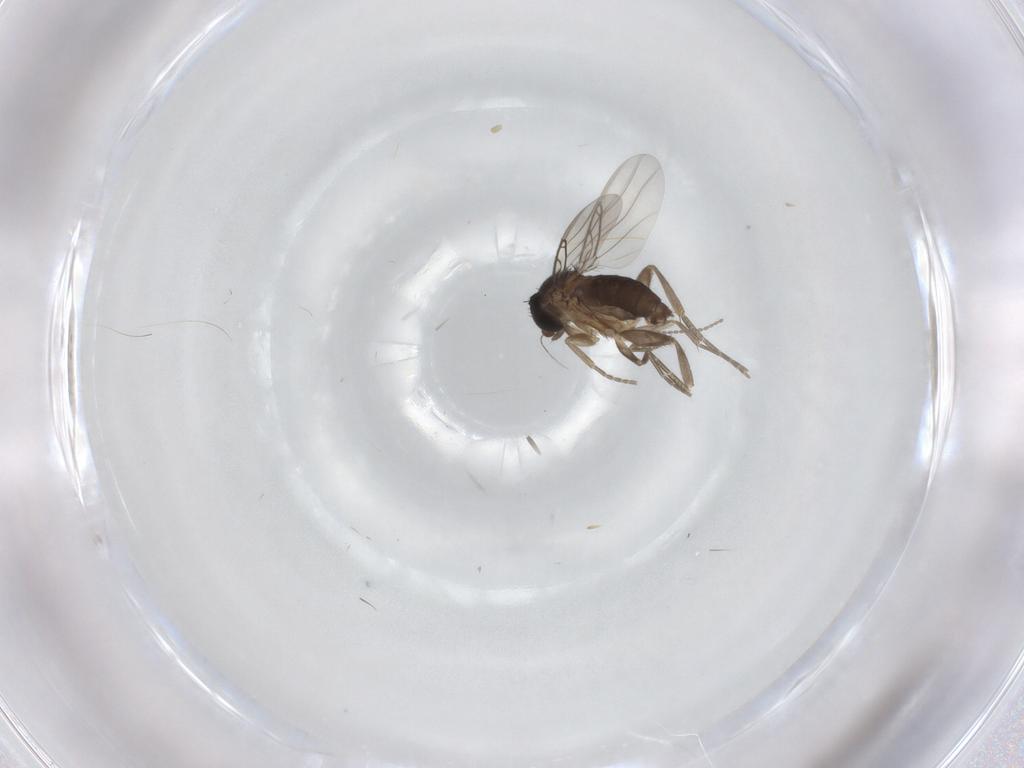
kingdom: Animalia
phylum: Arthropoda
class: Insecta
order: Diptera
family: Phoridae
